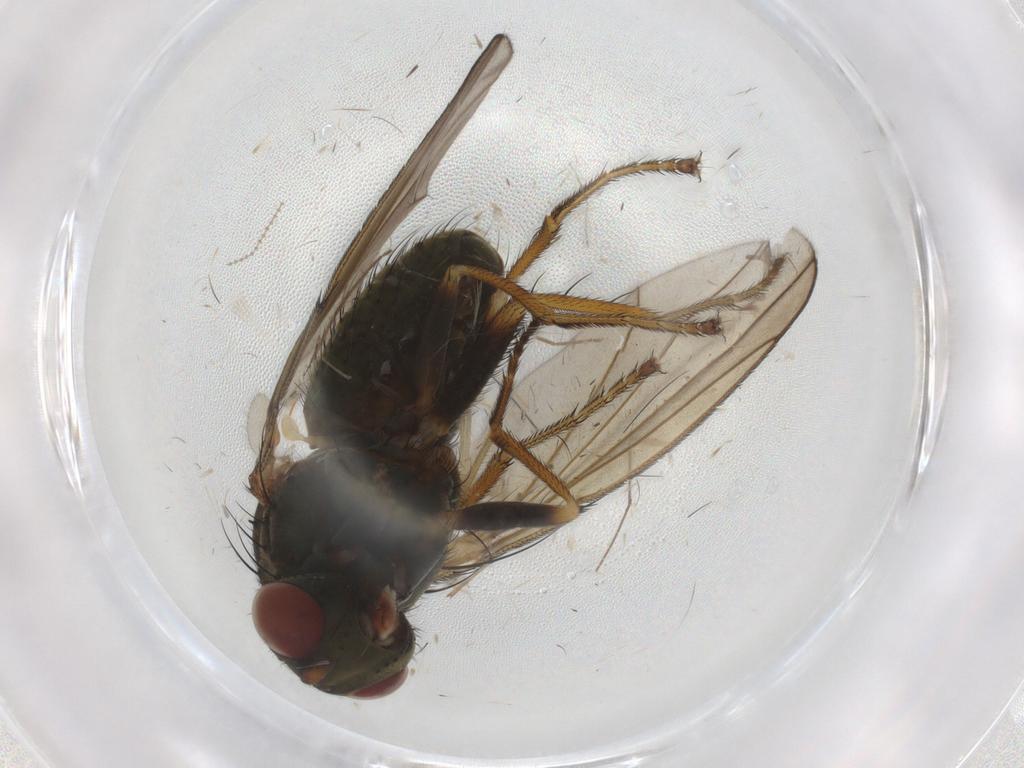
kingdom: Animalia
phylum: Arthropoda
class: Insecta
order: Diptera
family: Ephydridae
